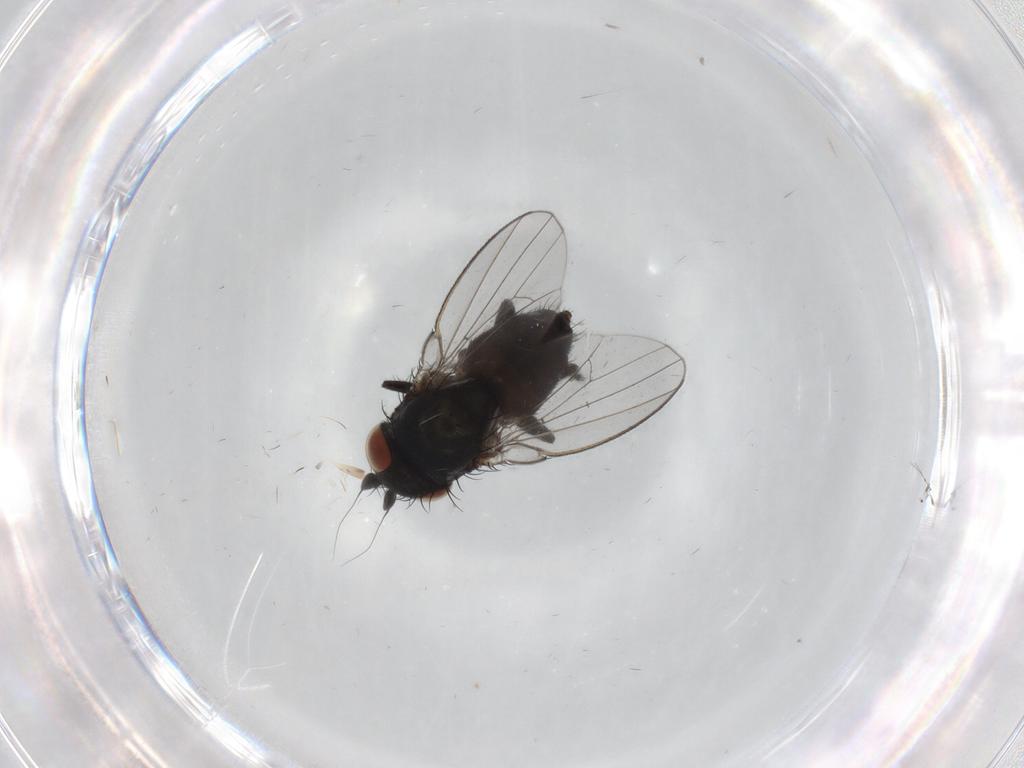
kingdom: Animalia
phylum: Arthropoda
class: Insecta
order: Diptera
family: Milichiidae
